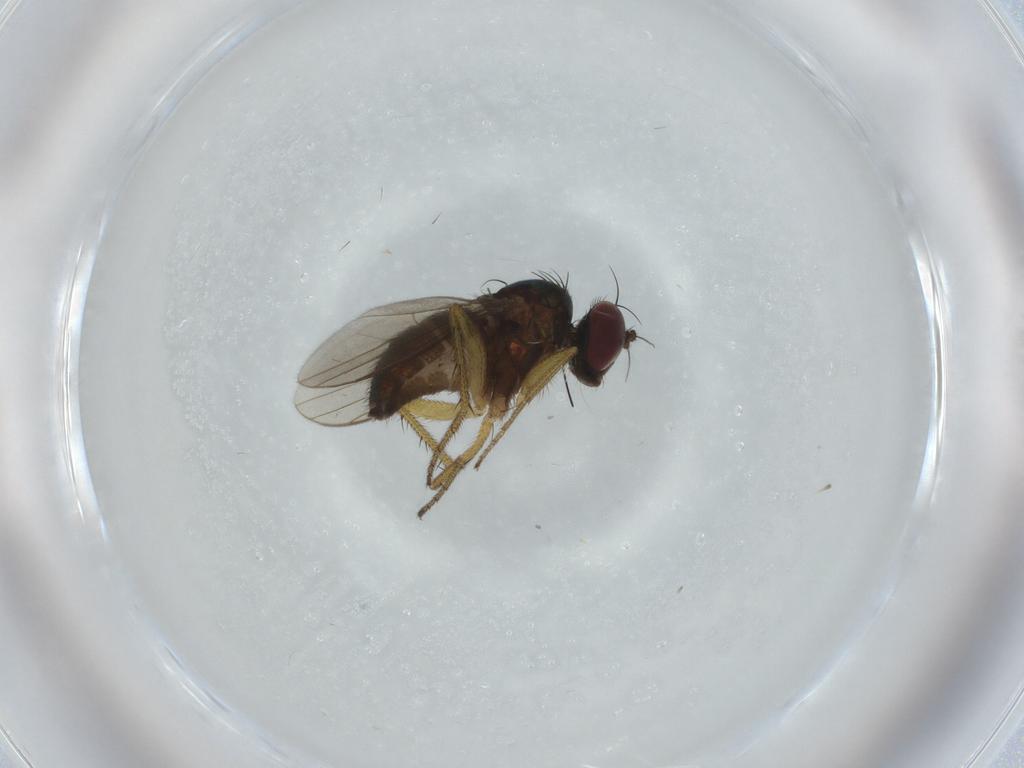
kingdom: Animalia
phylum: Arthropoda
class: Insecta
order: Diptera
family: Dolichopodidae
